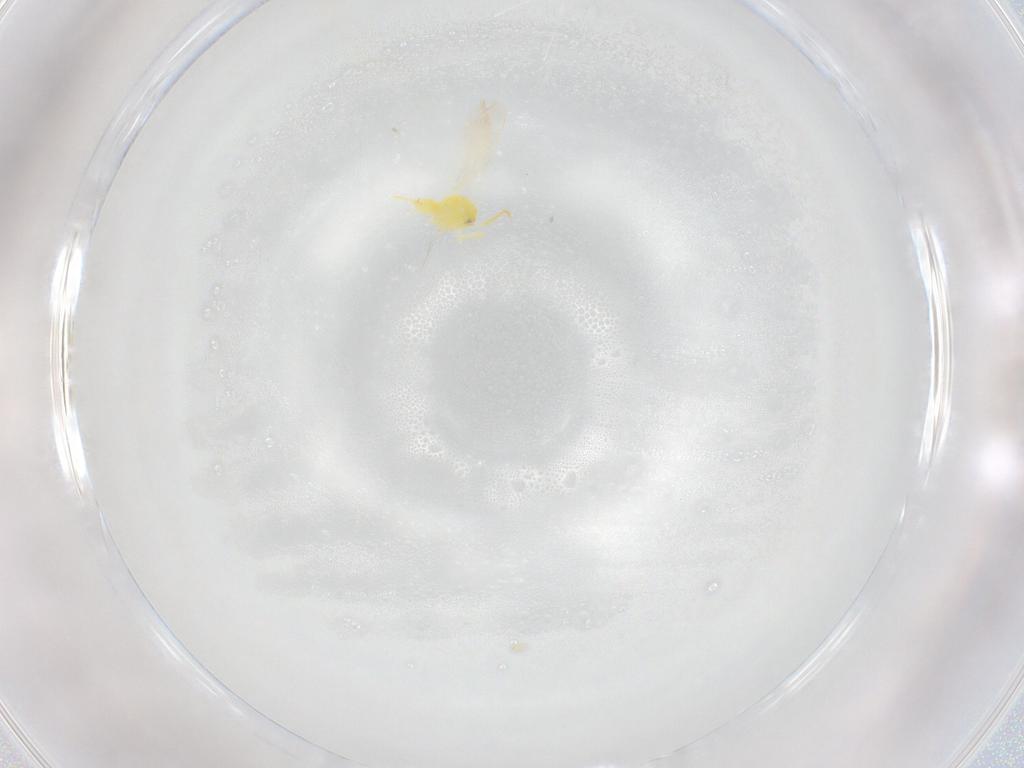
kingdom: Animalia
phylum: Arthropoda
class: Insecta
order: Hemiptera
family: Aleyrodidae
